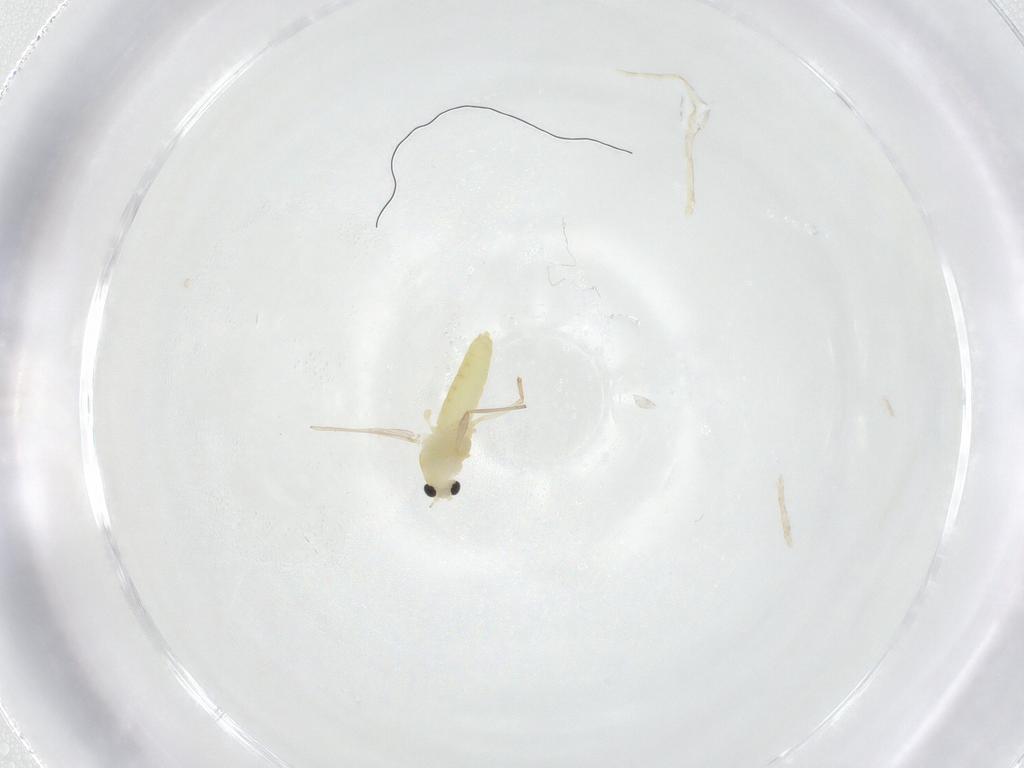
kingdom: Animalia
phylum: Arthropoda
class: Insecta
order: Diptera
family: Chironomidae
